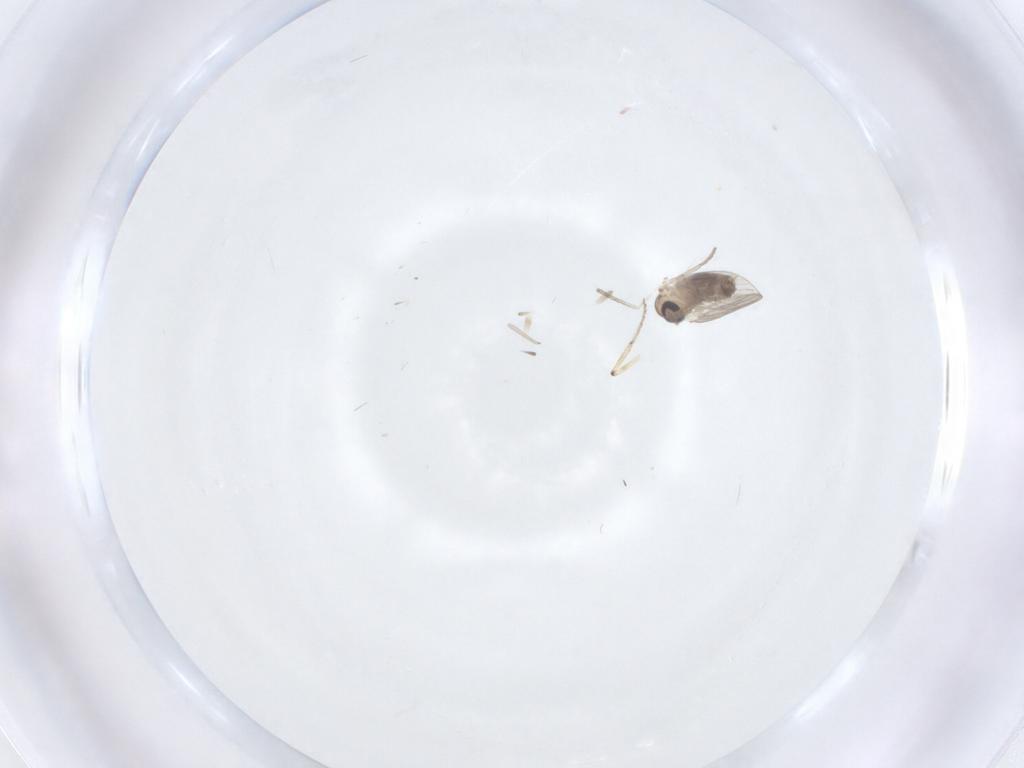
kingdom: Animalia
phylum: Arthropoda
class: Insecta
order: Diptera
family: Psychodidae
